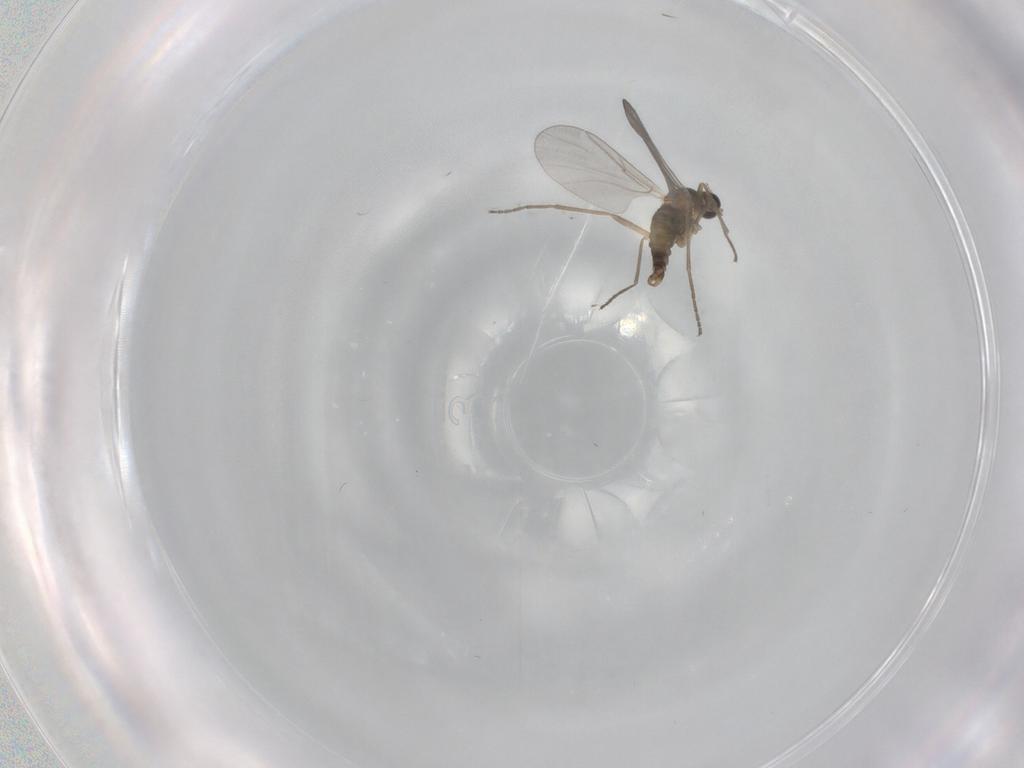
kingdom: Animalia
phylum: Arthropoda
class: Insecta
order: Diptera
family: Cecidomyiidae
